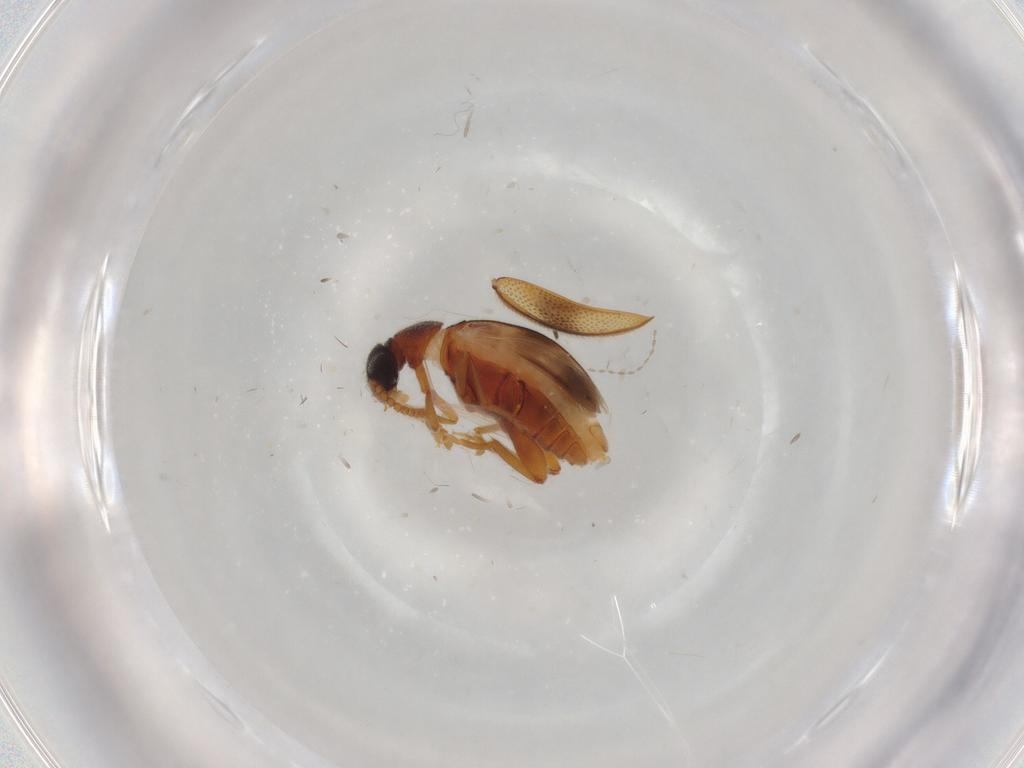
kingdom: Animalia
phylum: Arthropoda
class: Insecta
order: Coleoptera
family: Aderidae
